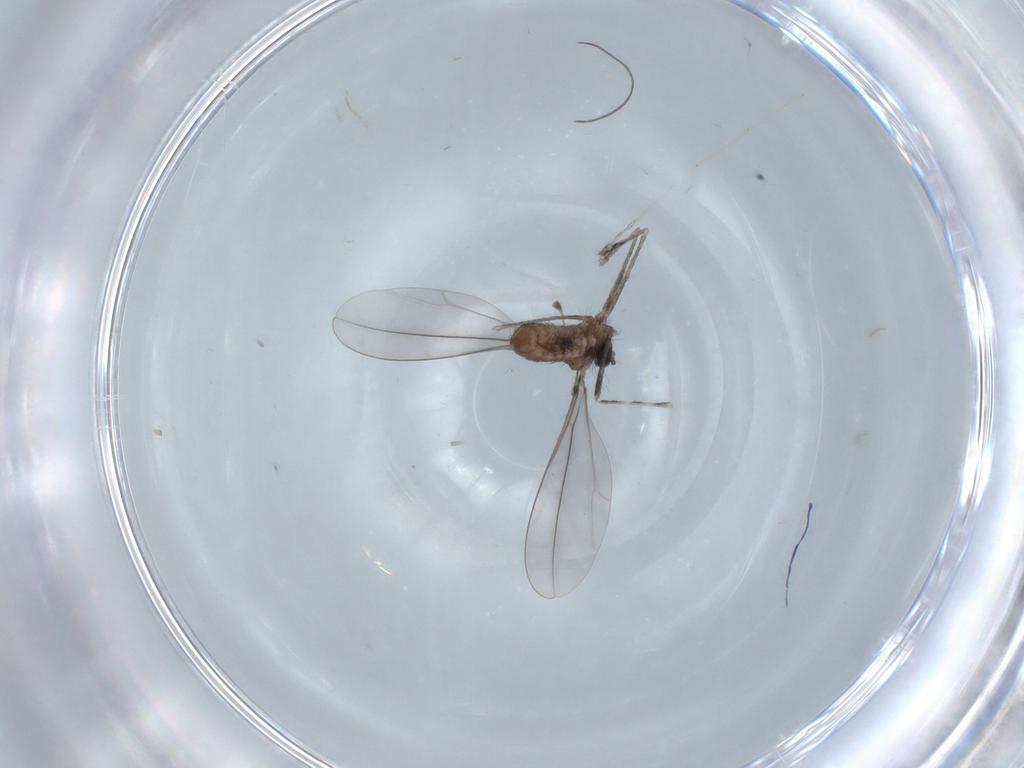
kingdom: Animalia
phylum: Arthropoda
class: Insecta
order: Diptera
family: Cecidomyiidae
